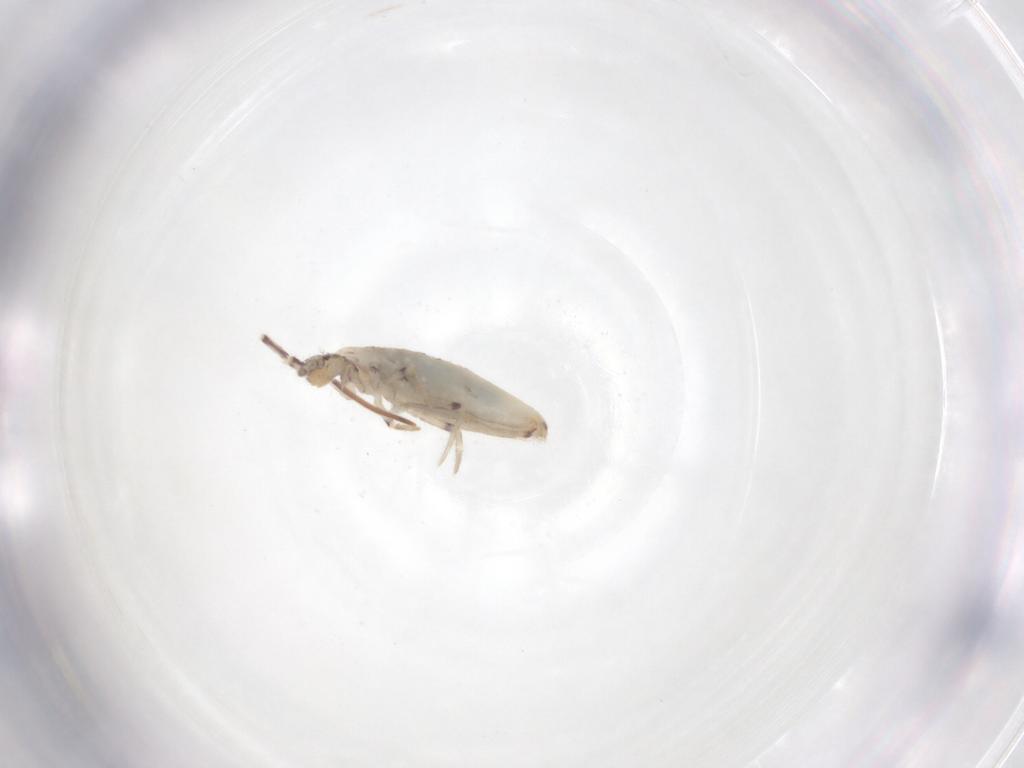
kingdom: Animalia
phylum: Arthropoda
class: Collembola
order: Entomobryomorpha
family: Entomobryidae
